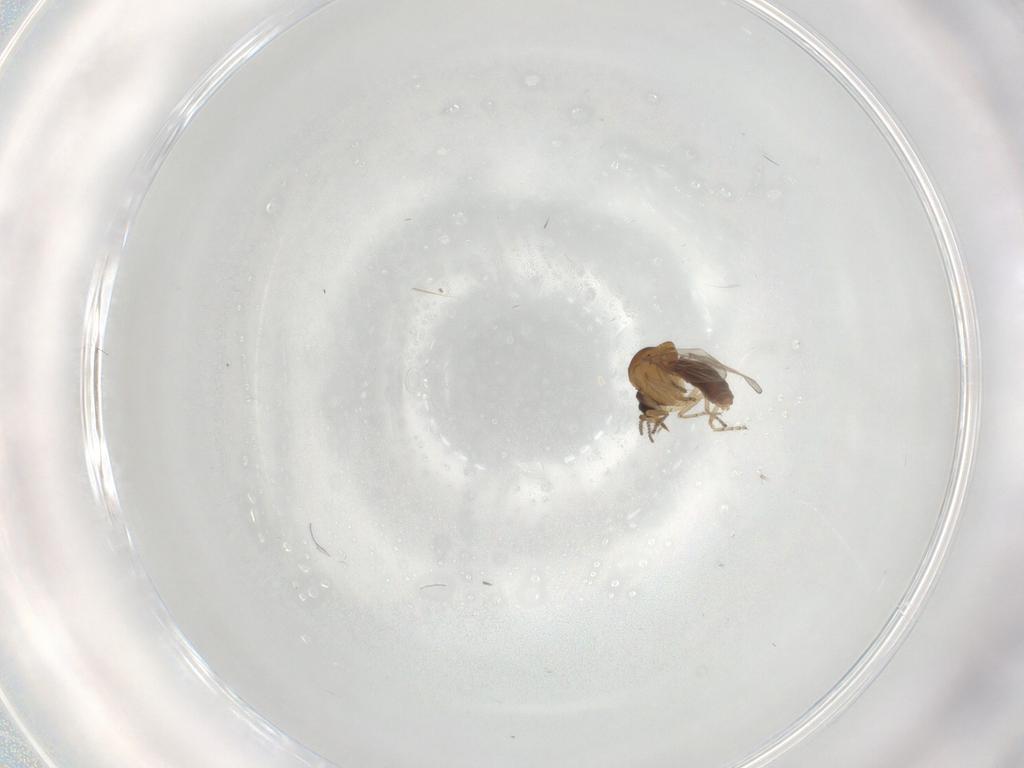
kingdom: Animalia
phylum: Arthropoda
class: Insecta
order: Diptera
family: Ceratopogonidae
